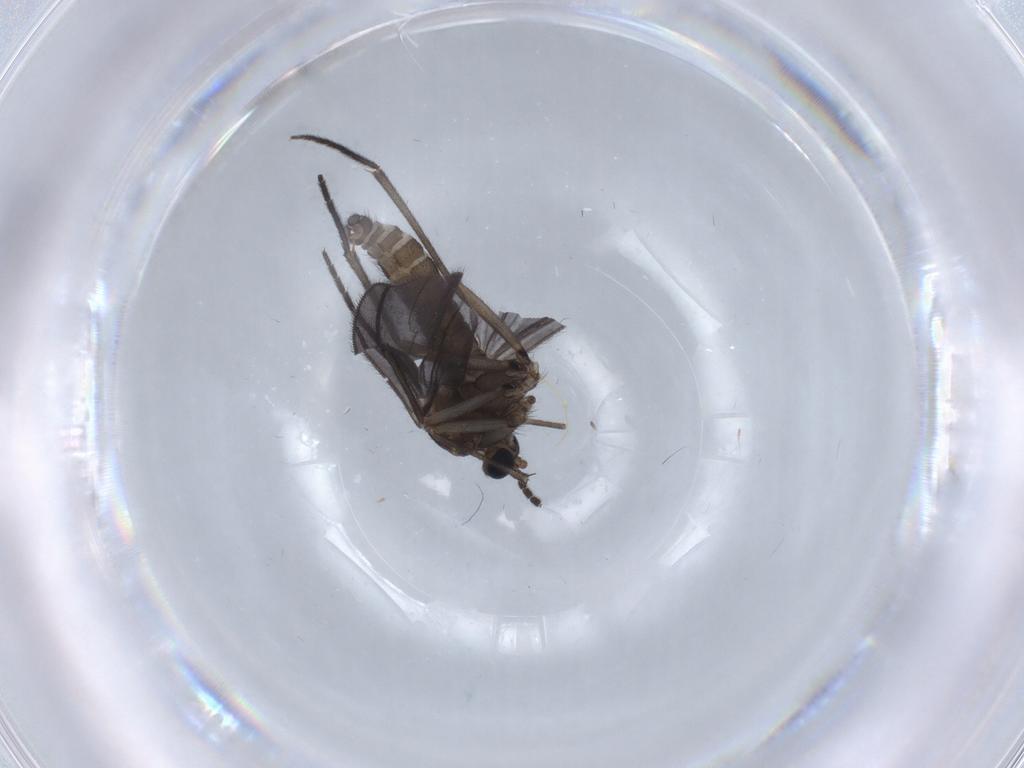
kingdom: Animalia
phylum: Arthropoda
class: Insecta
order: Diptera
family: Sciaridae
